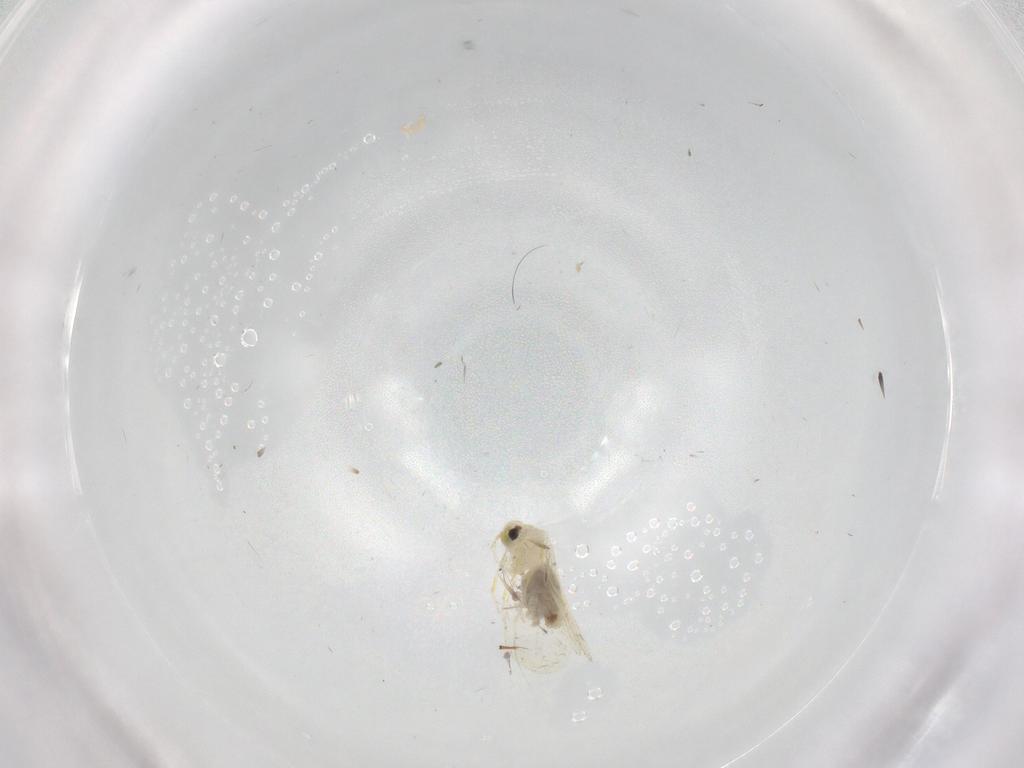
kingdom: Animalia
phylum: Arthropoda
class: Insecta
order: Hemiptera
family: Aleyrodidae
